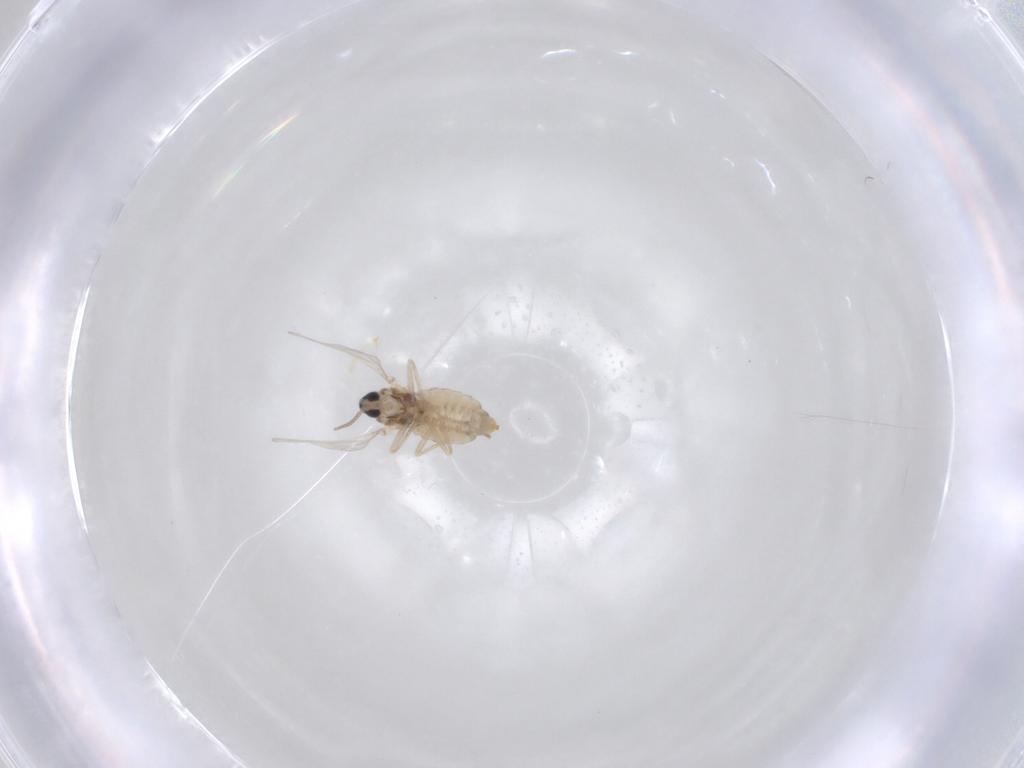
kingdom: Animalia
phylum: Arthropoda
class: Insecta
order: Diptera
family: Cecidomyiidae
